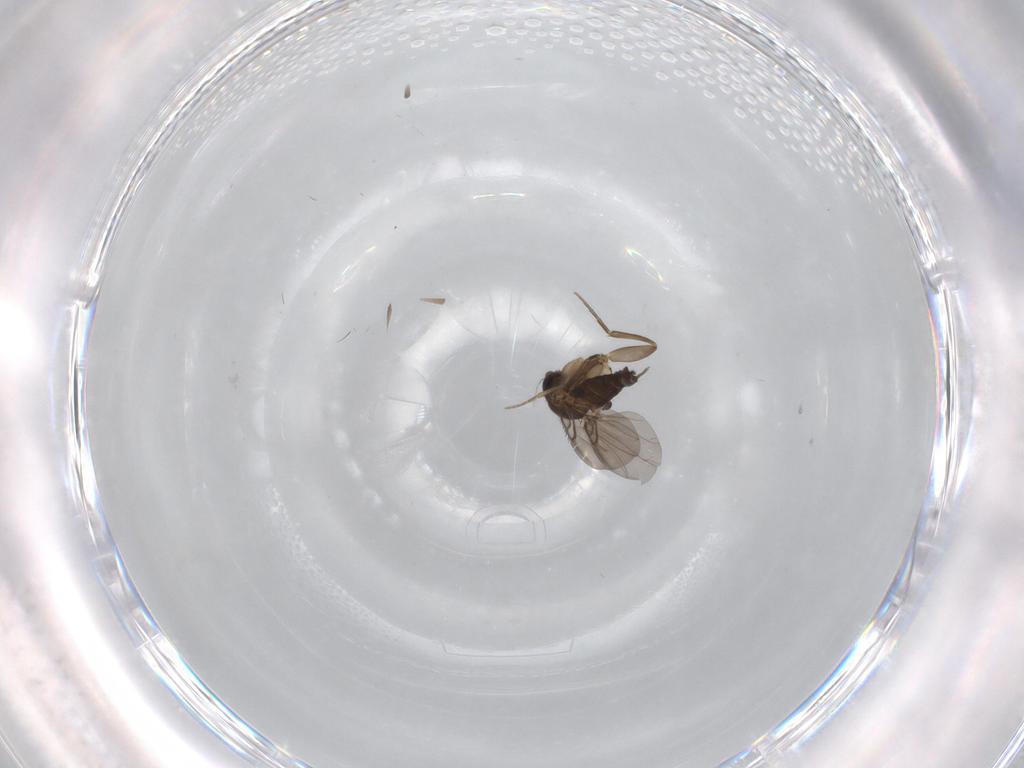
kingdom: Animalia
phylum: Arthropoda
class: Insecta
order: Diptera
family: Phoridae
